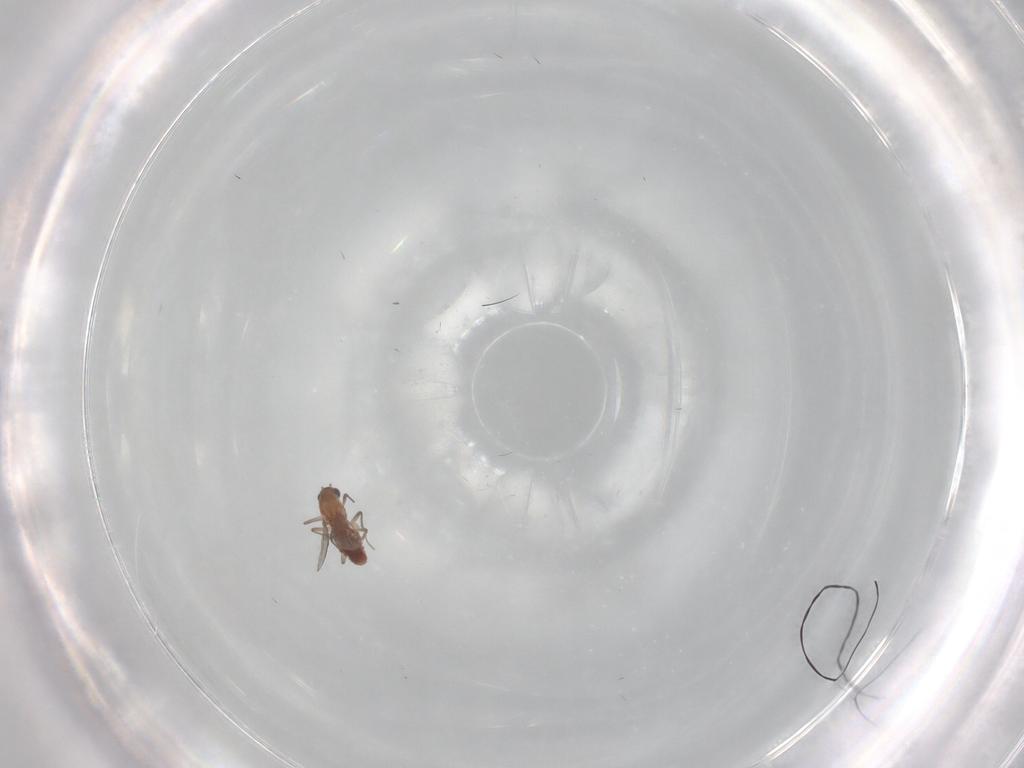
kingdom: Animalia
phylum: Arthropoda
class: Insecta
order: Diptera
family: Chironomidae
